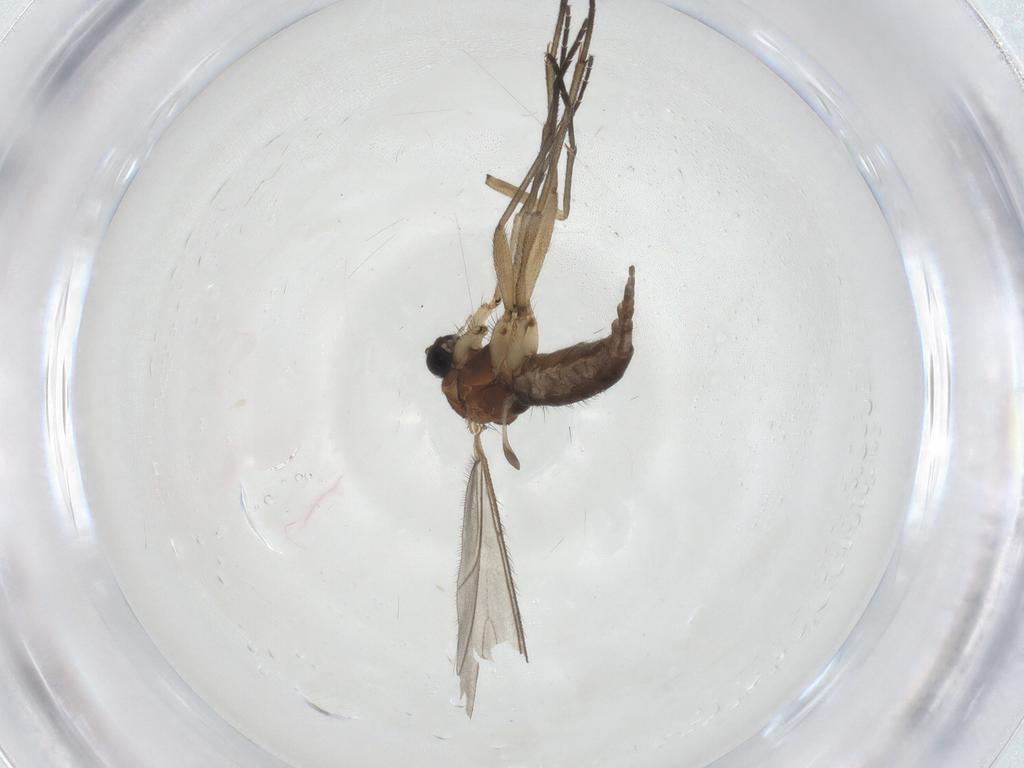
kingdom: Animalia
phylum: Arthropoda
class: Insecta
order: Diptera
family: Sciaridae
